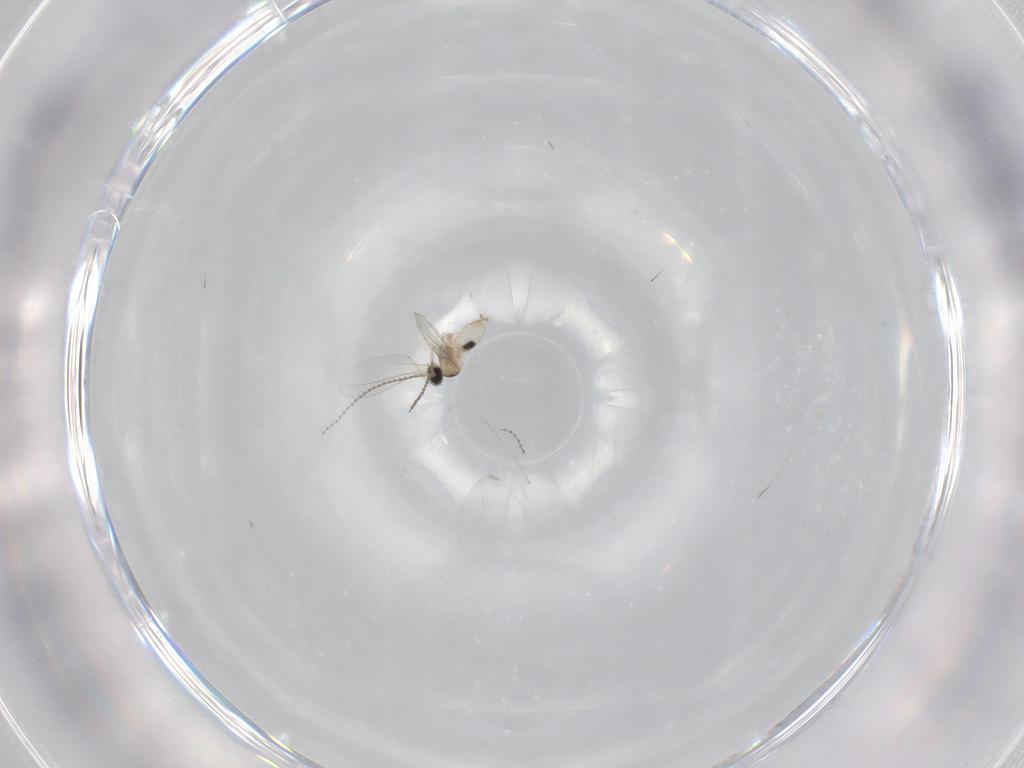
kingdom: Animalia
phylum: Arthropoda
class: Insecta
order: Diptera
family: Cecidomyiidae
